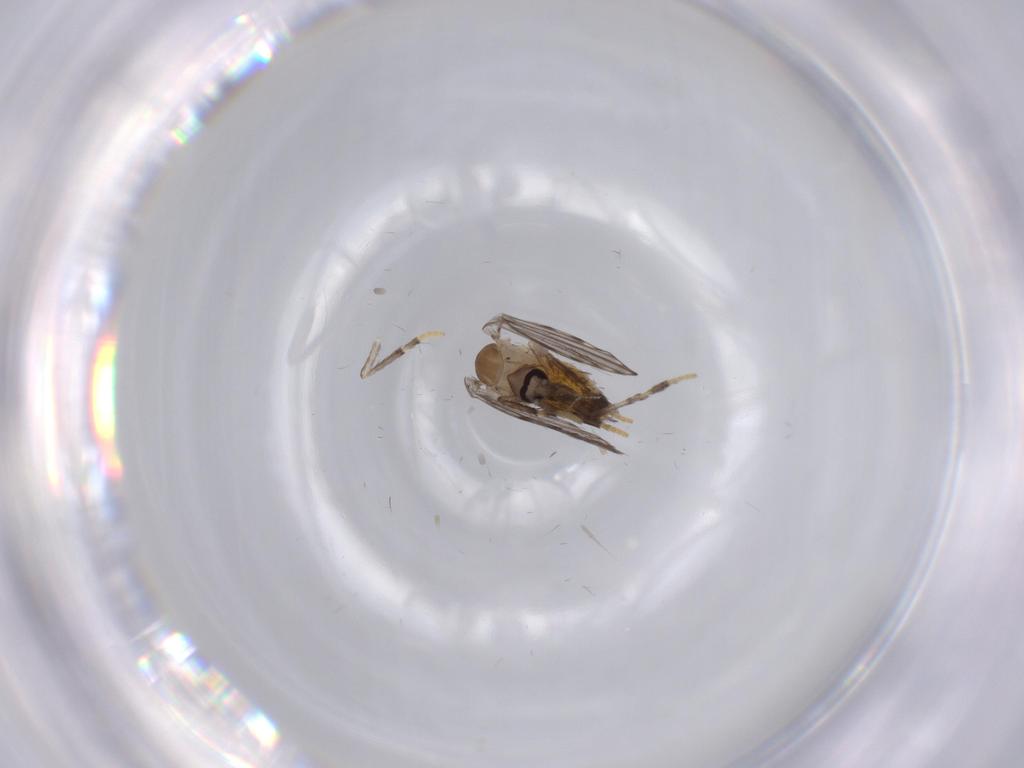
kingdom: Animalia
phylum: Arthropoda
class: Insecta
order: Diptera
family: Psychodidae
